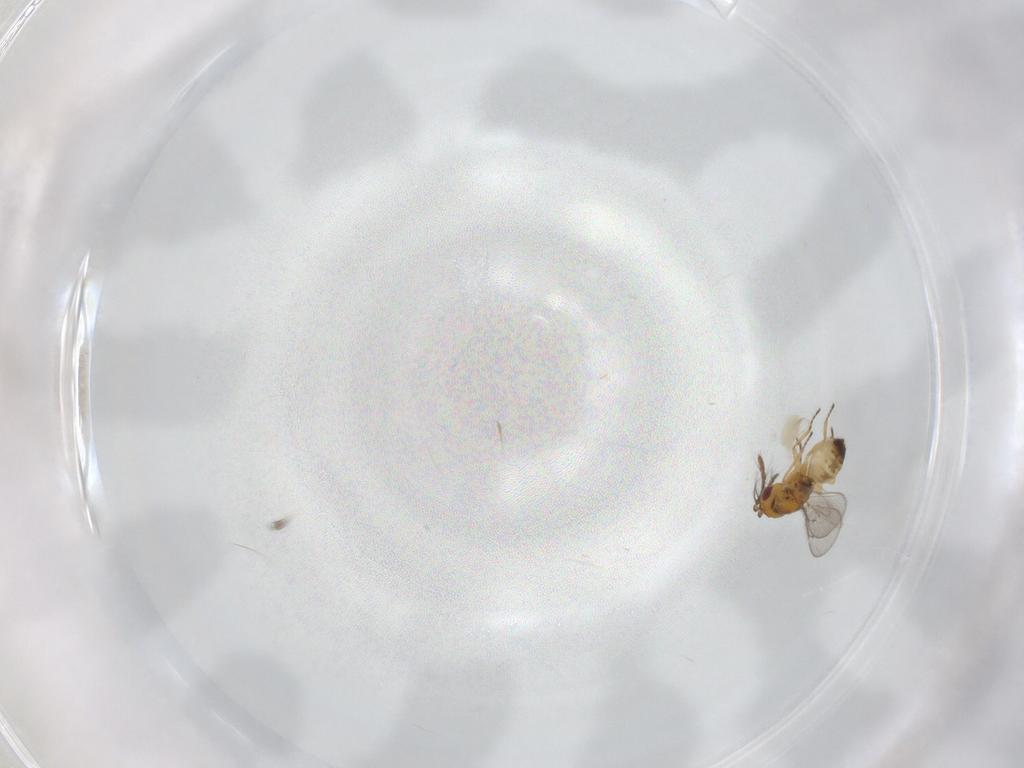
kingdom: Animalia
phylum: Arthropoda
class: Insecta
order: Hymenoptera
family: Eulophidae
